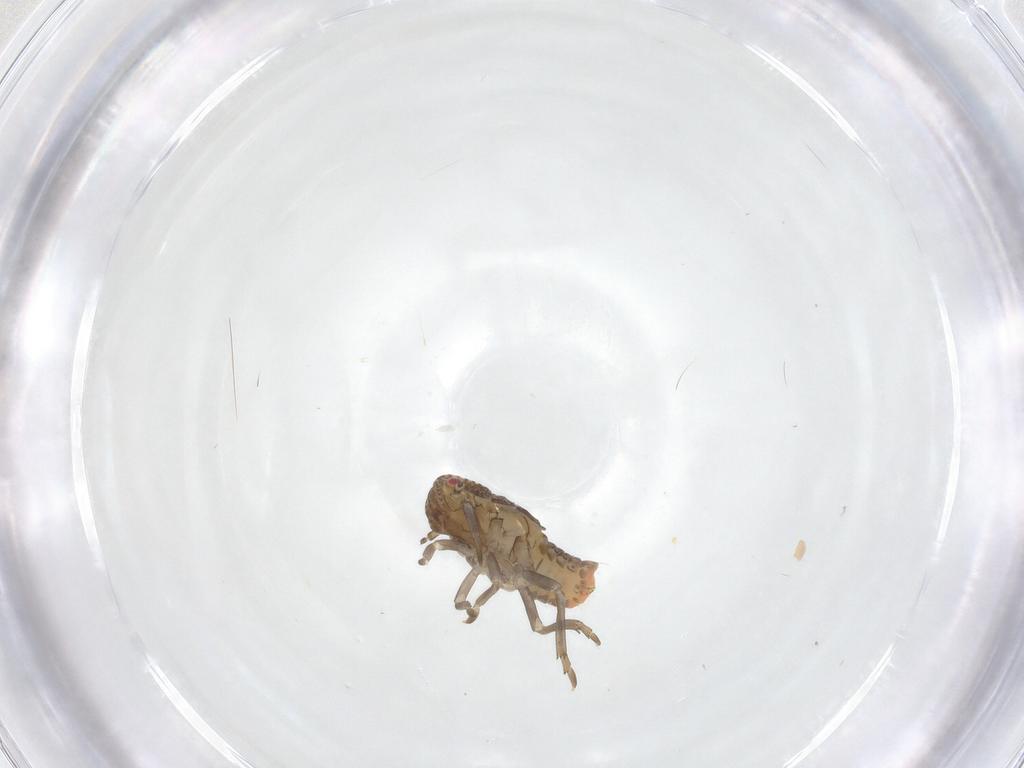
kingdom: Animalia
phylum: Arthropoda
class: Insecta
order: Hemiptera
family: Flatidae
